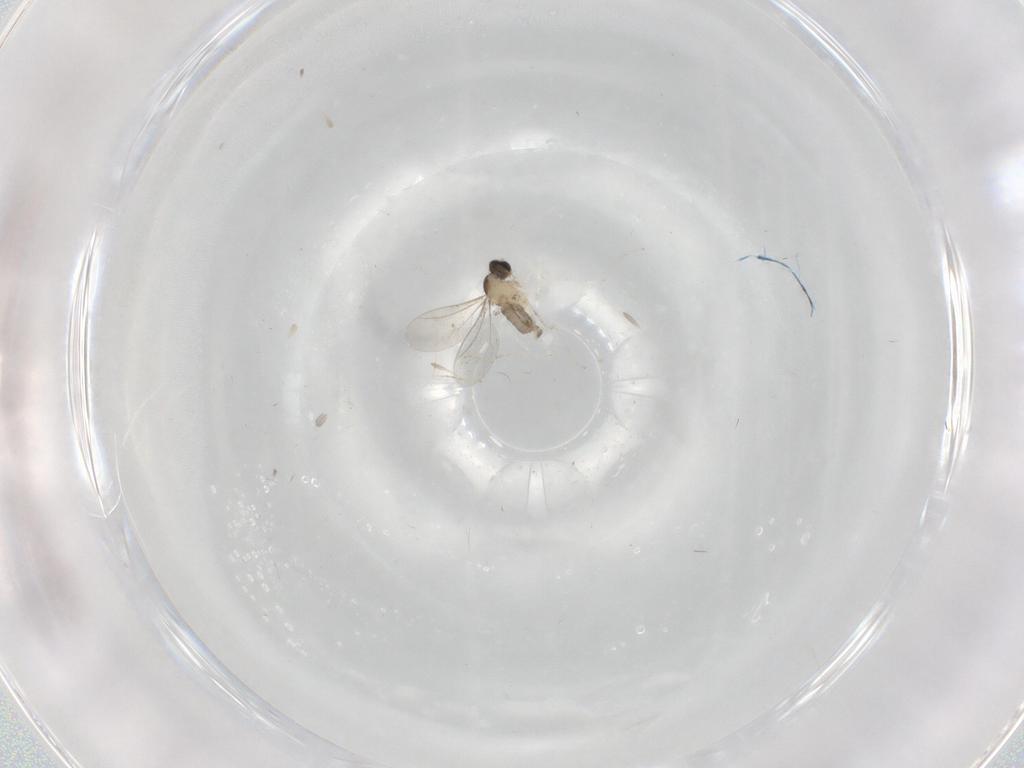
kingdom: Animalia
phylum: Arthropoda
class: Insecta
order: Diptera
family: Cecidomyiidae
